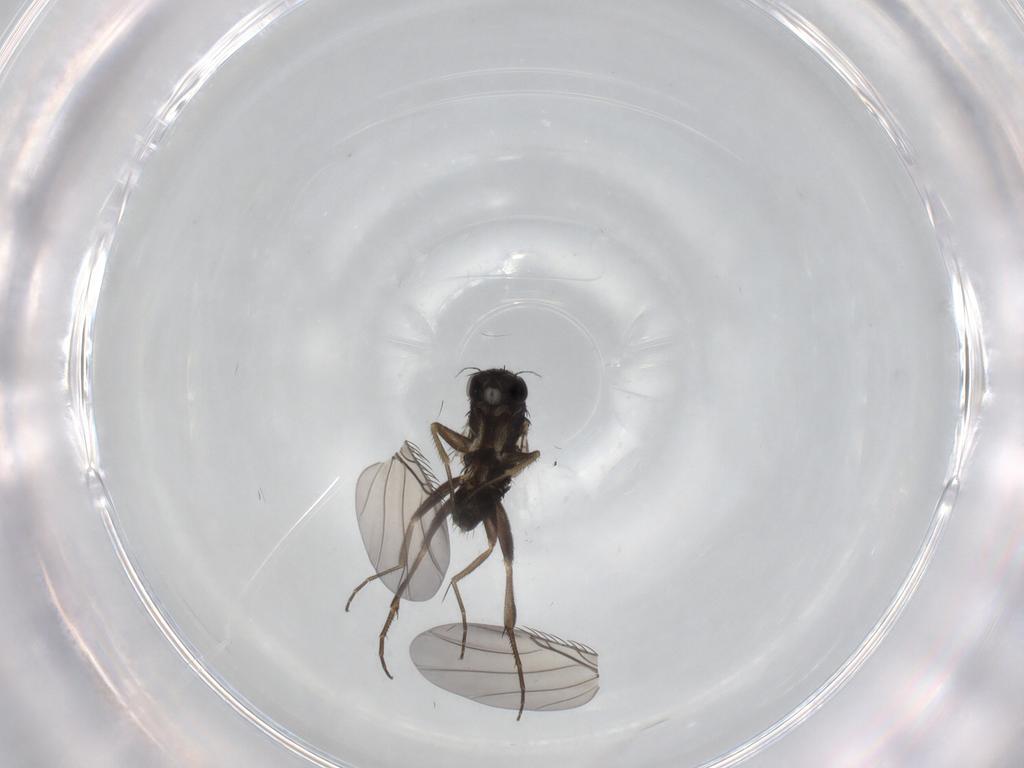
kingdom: Animalia
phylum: Arthropoda
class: Insecta
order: Diptera
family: Phoridae
